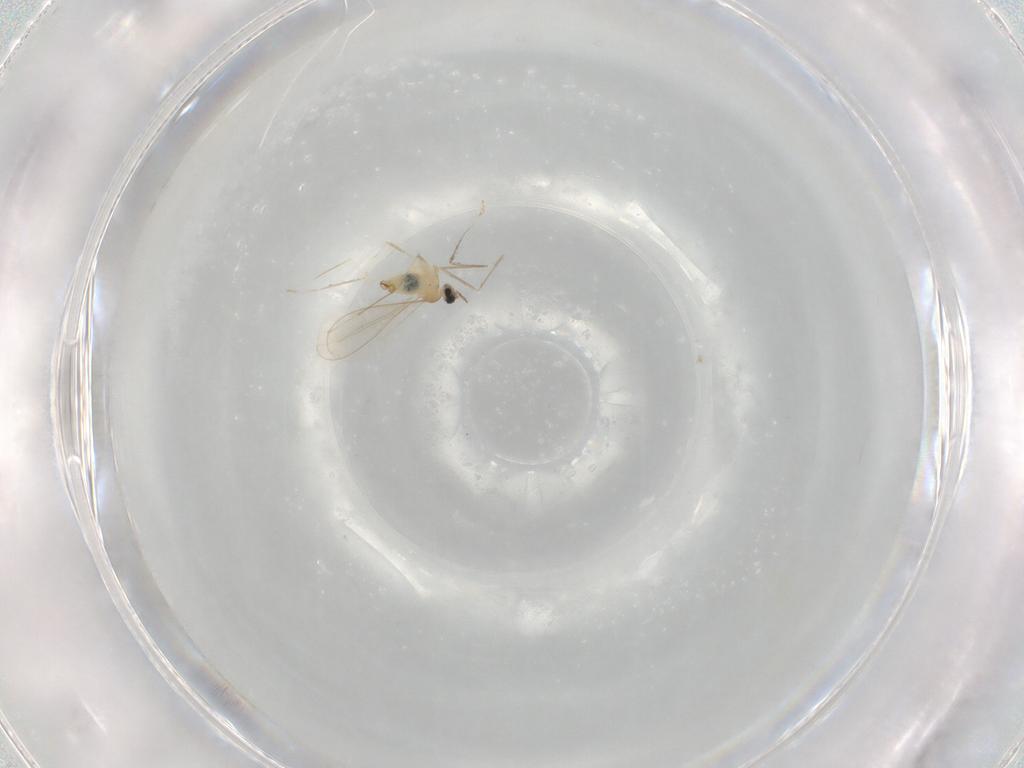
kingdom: Animalia
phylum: Arthropoda
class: Insecta
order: Diptera
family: Cecidomyiidae
